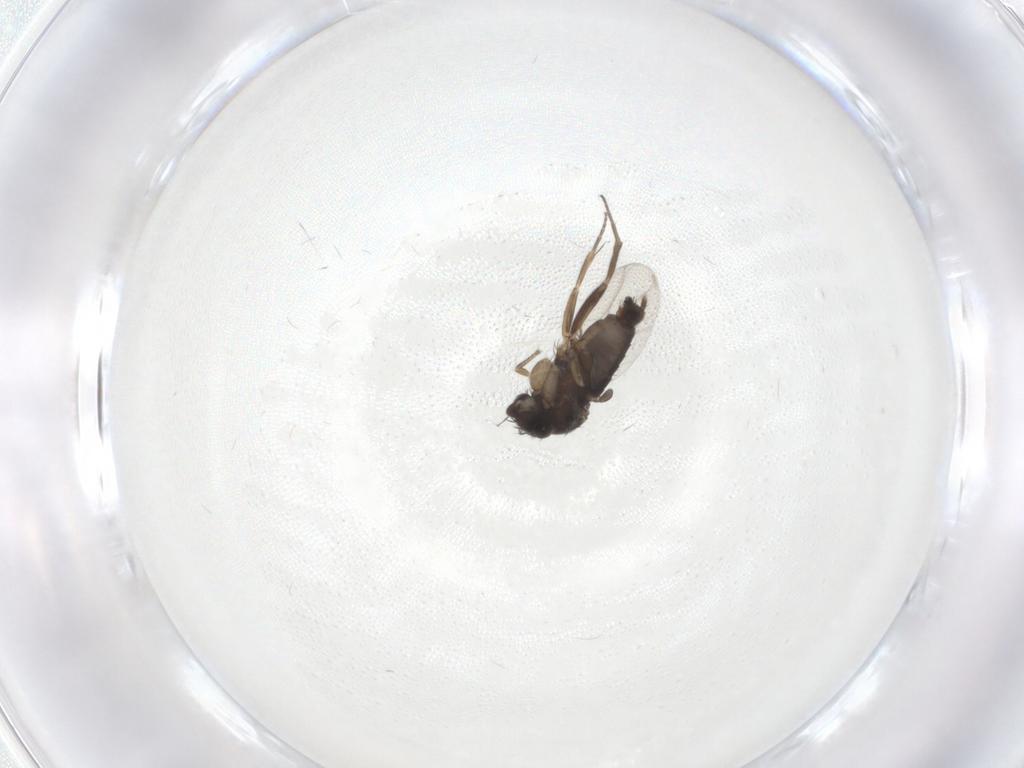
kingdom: Animalia
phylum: Arthropoda
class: Insecta
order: Diptera
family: Phoridae
